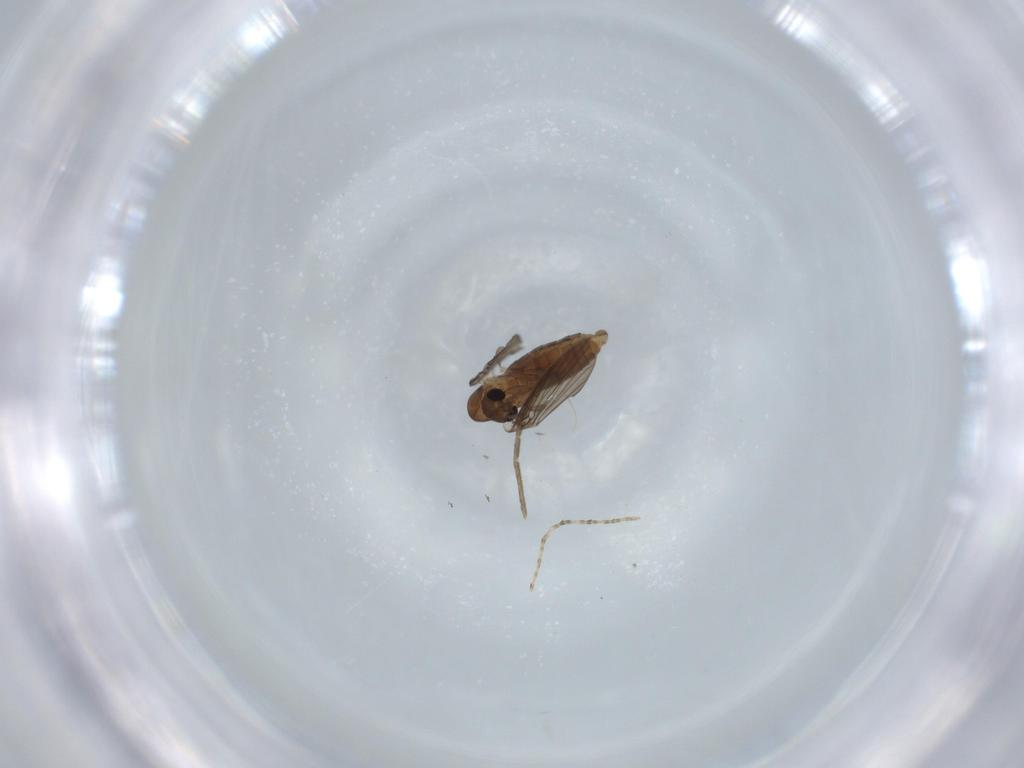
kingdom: Animalia
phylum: Arthropoda
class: Insecta
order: Diptera
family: Psychodidae
